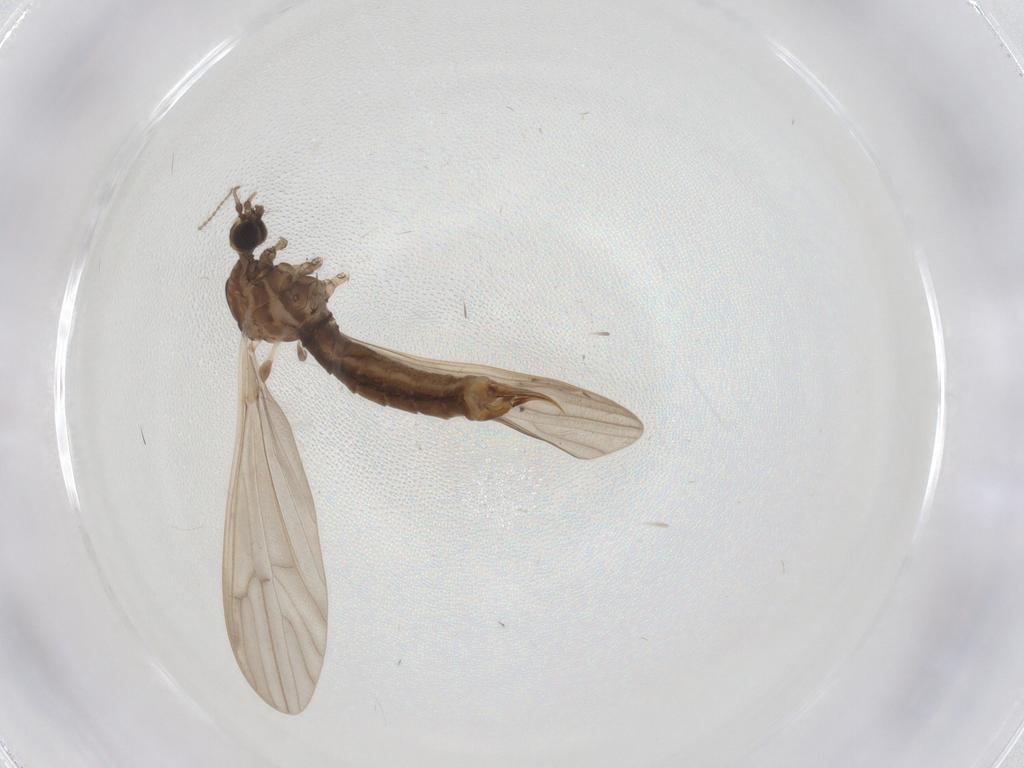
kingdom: Animalia
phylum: Arthropoda
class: Insecta
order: Diptera
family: Limoniidae
